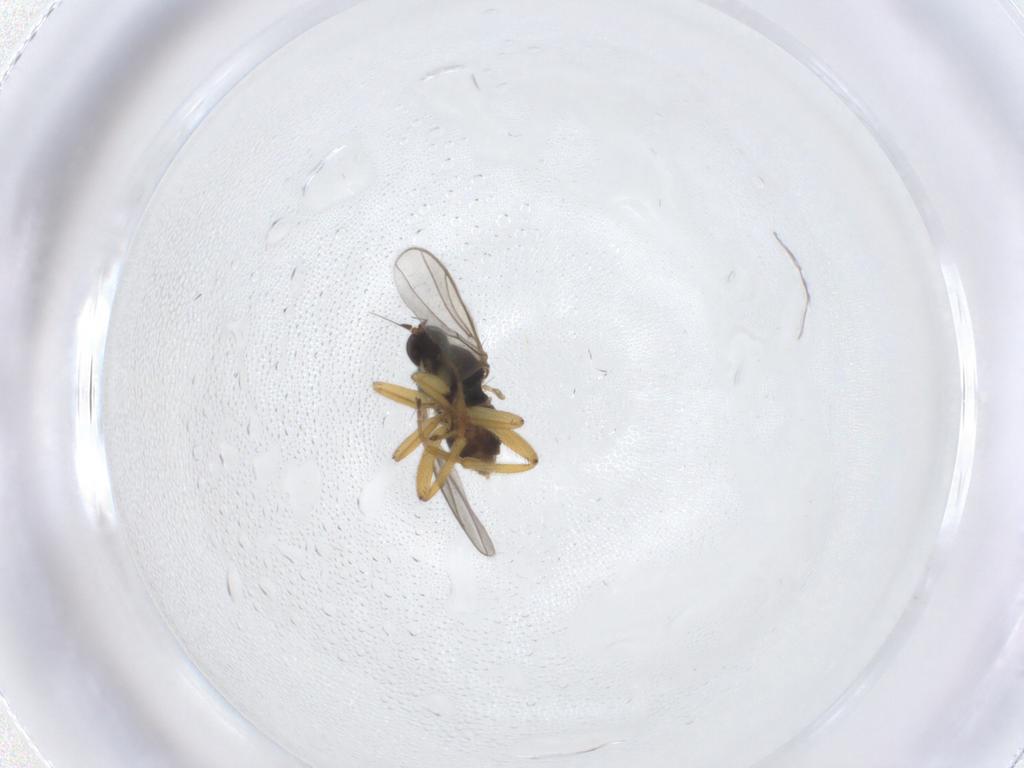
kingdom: Animalia
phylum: Arthropoda
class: Insecta
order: Diptera
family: Hybotidae
